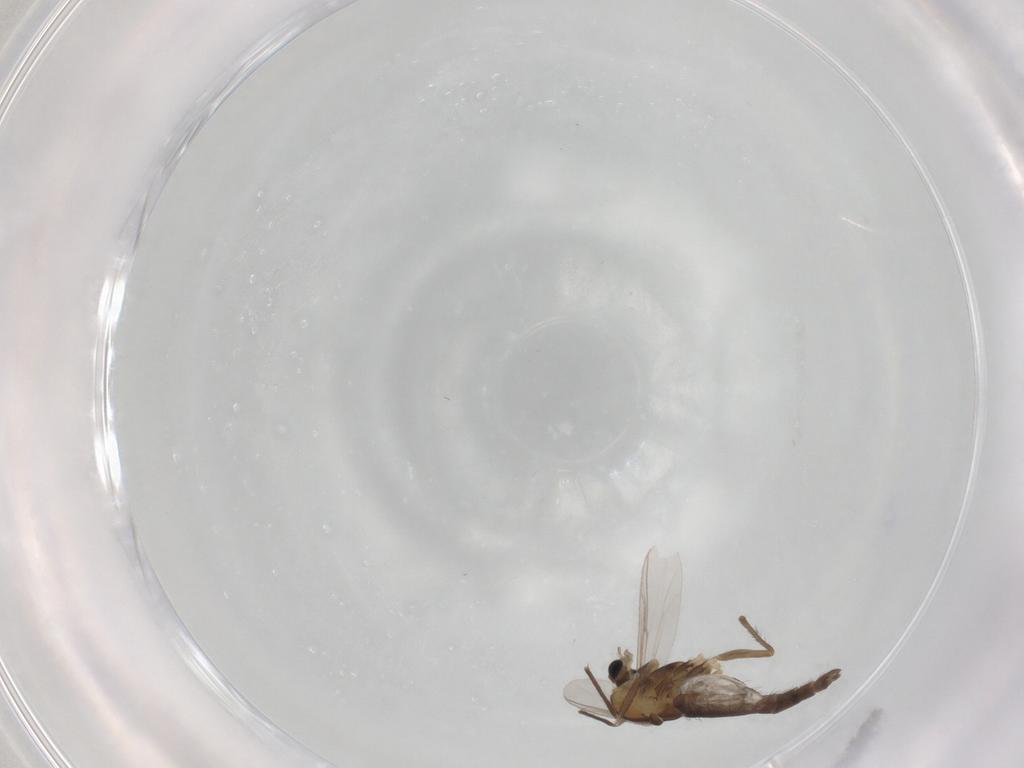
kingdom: Animalia
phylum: Arthropoda
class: Insecta
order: Diptera
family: Chironomidae
